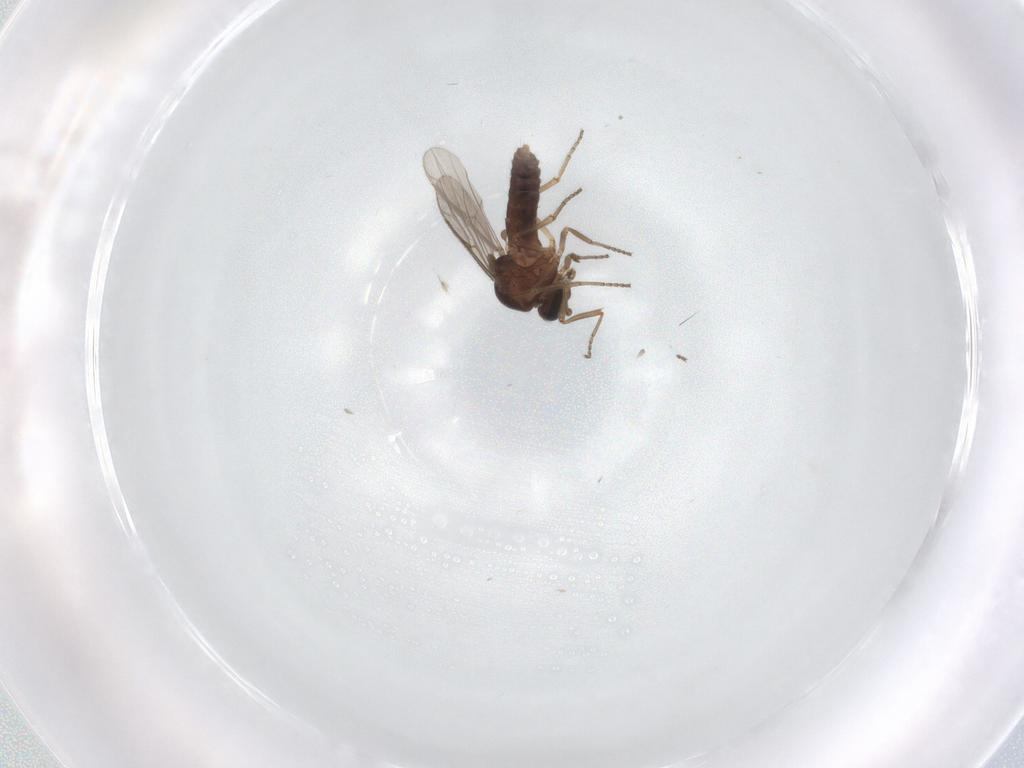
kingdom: Animalia
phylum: Arthropoda
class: Insecta
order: Diptera
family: Ceratopogonidae
